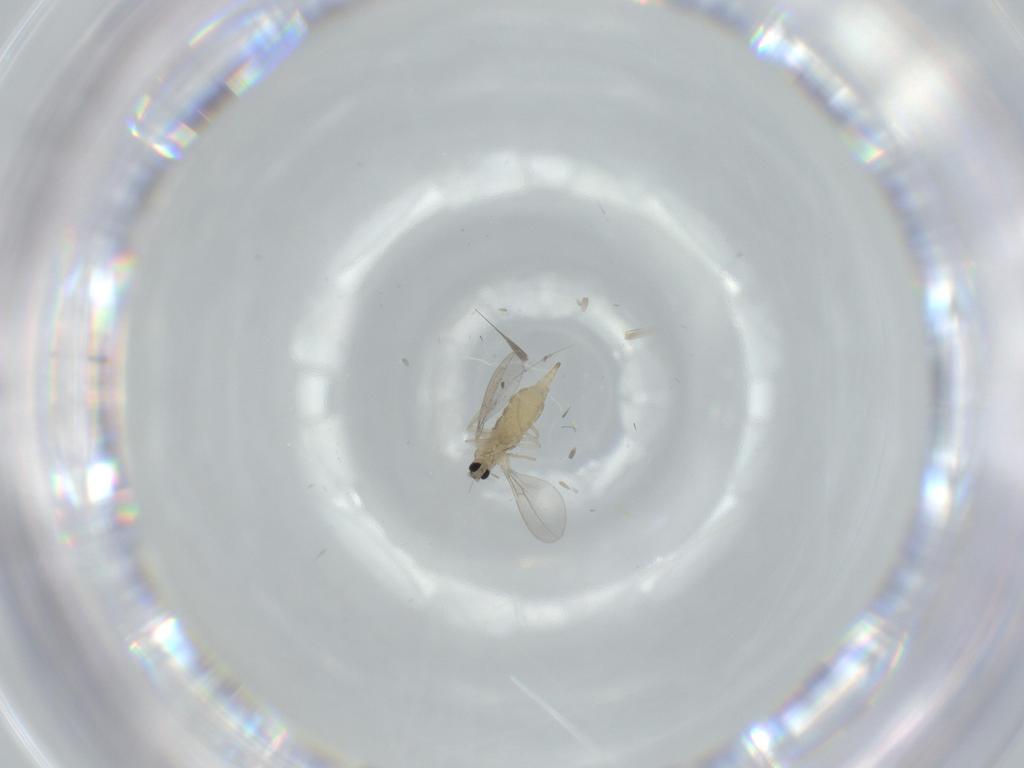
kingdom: Animalia
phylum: Arthropoda
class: Insecta
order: Diptera
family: Cecidomyiidae
